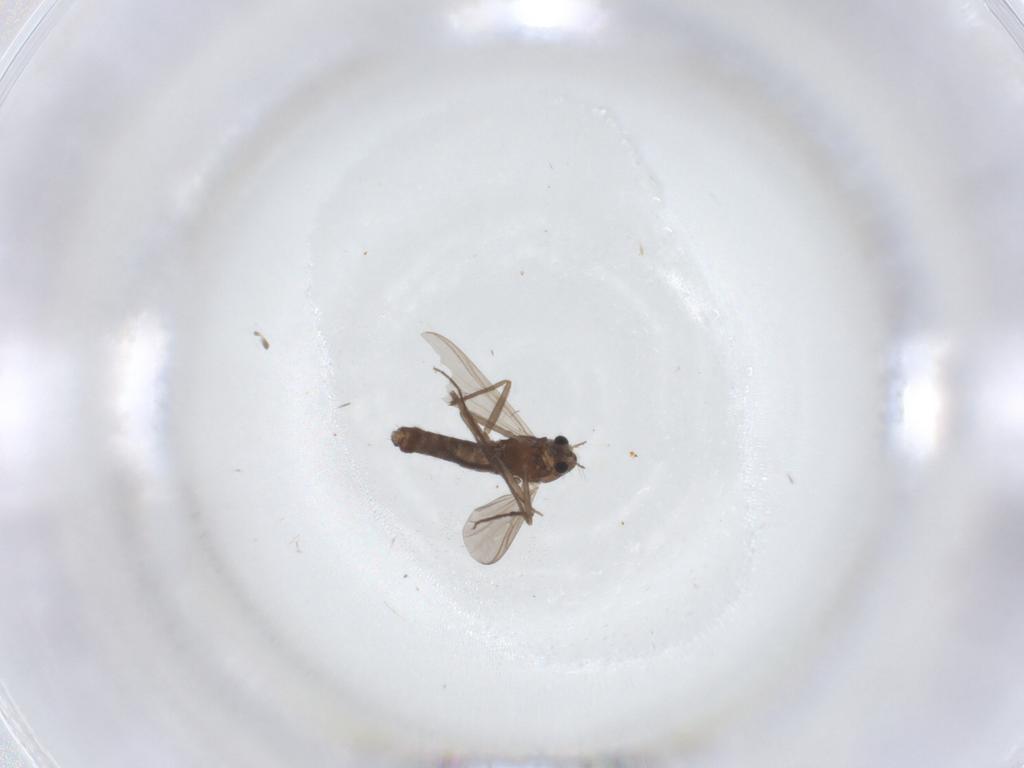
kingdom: Animalia
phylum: Arthropoda
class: Insecta
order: Diptera
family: Chironomidae
